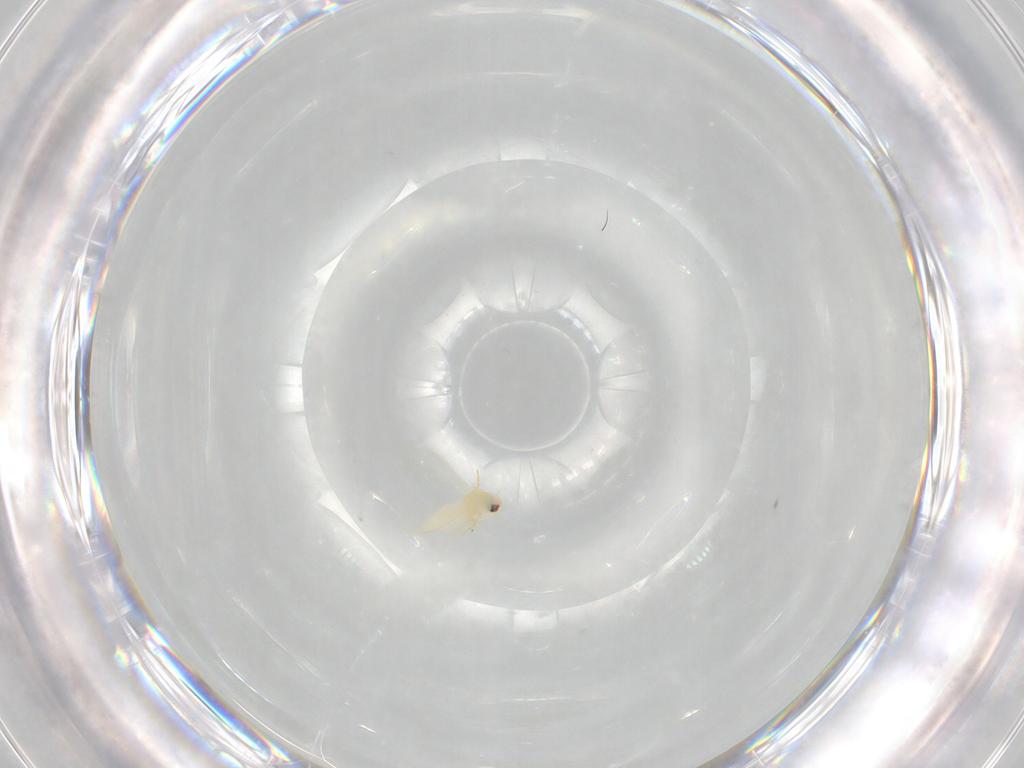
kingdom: Animalia
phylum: Arthropoda
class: Insecta
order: Hemiptera
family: Aleyrodidae
